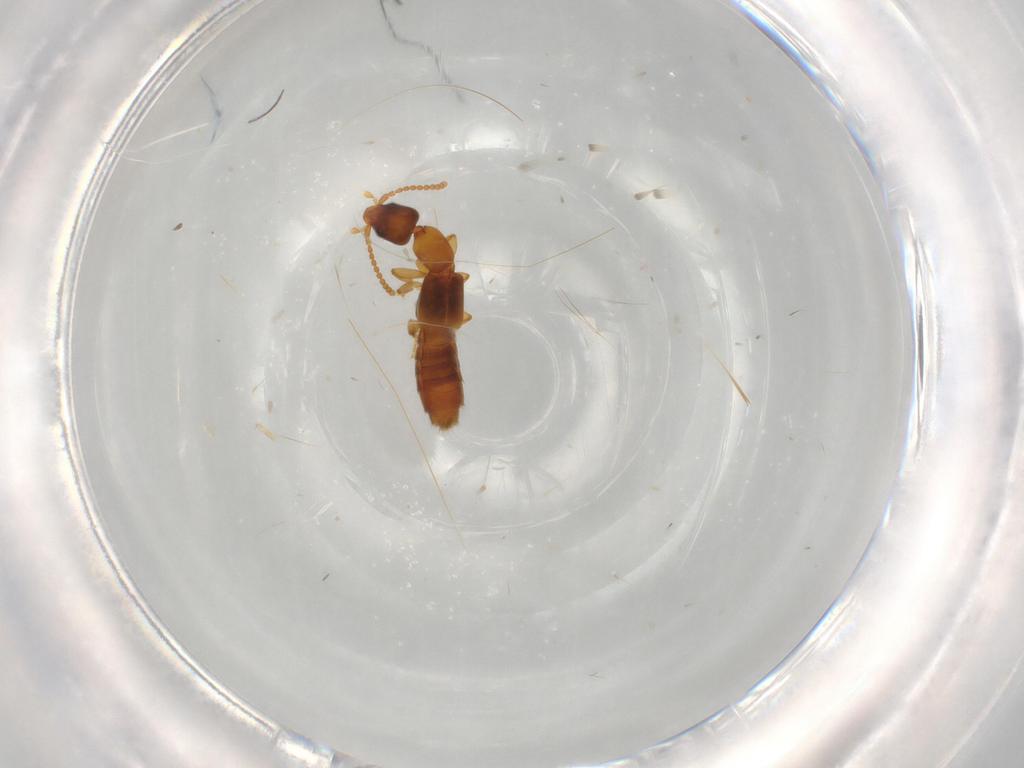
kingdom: Animalia
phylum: Arthropoda
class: Insecta
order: Coleoptera
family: Staphylinidae
